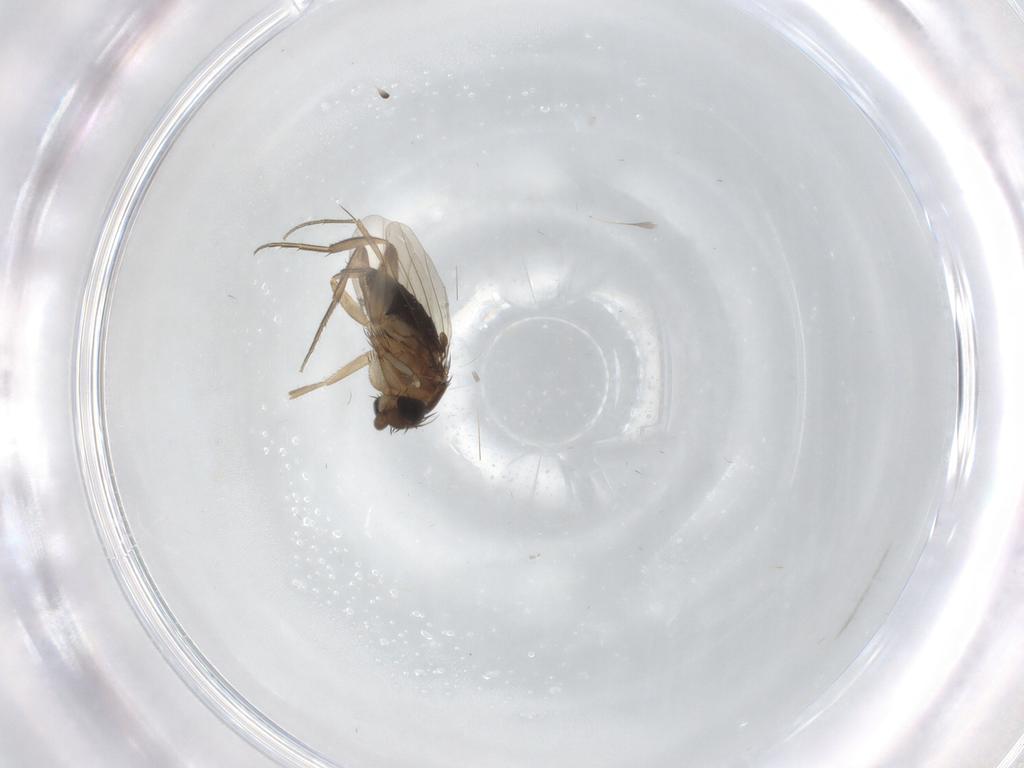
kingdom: Animalia
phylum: Arthropoda
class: Insecta
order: Diptera
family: Phoridae
